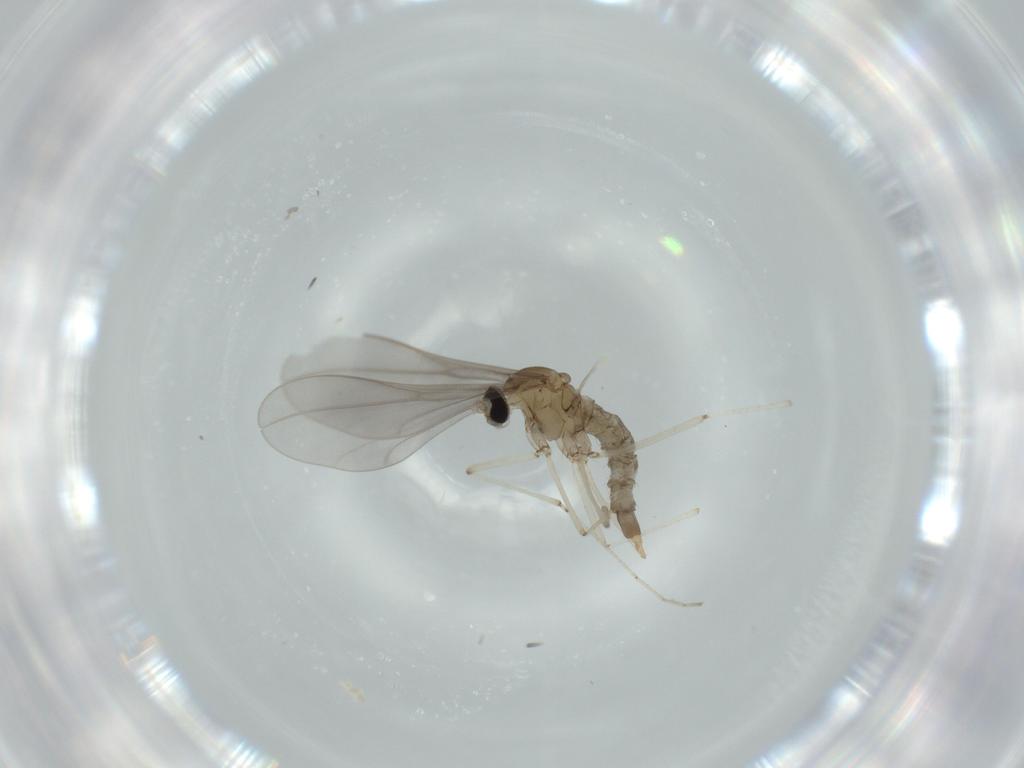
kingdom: Animalia
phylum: Arthropoda
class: Insecta
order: Diptera
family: Cecidomyiidae
